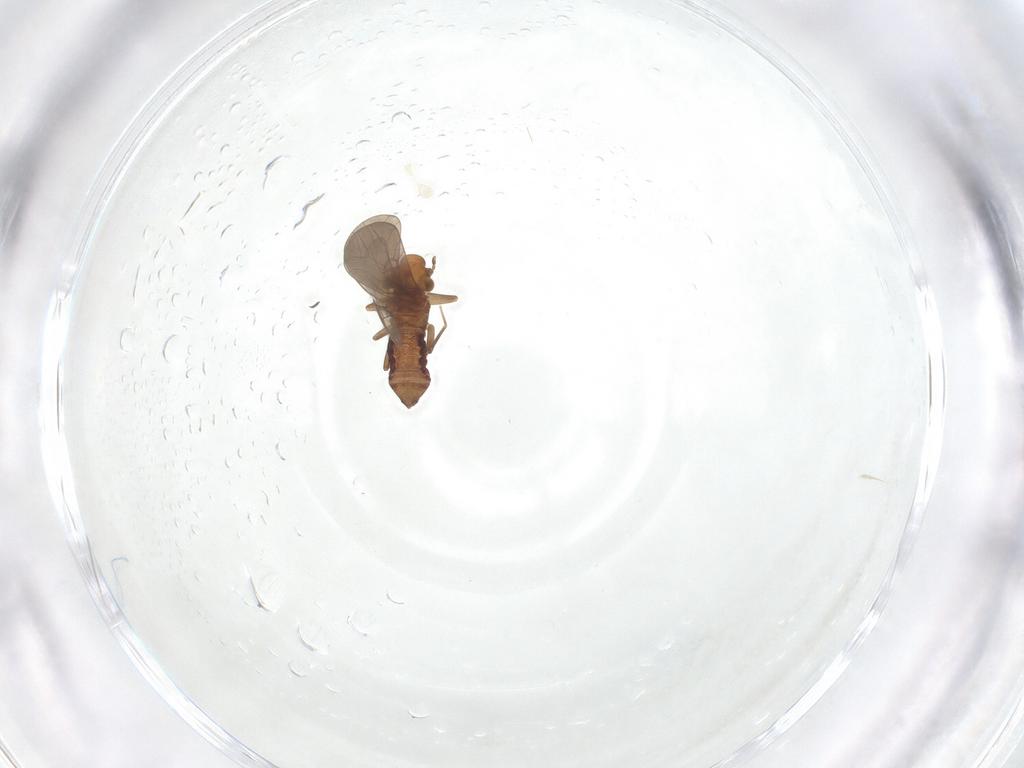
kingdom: Animalia
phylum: Arthropoda
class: Insecta
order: Psocodea
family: Lepidopsocidae
